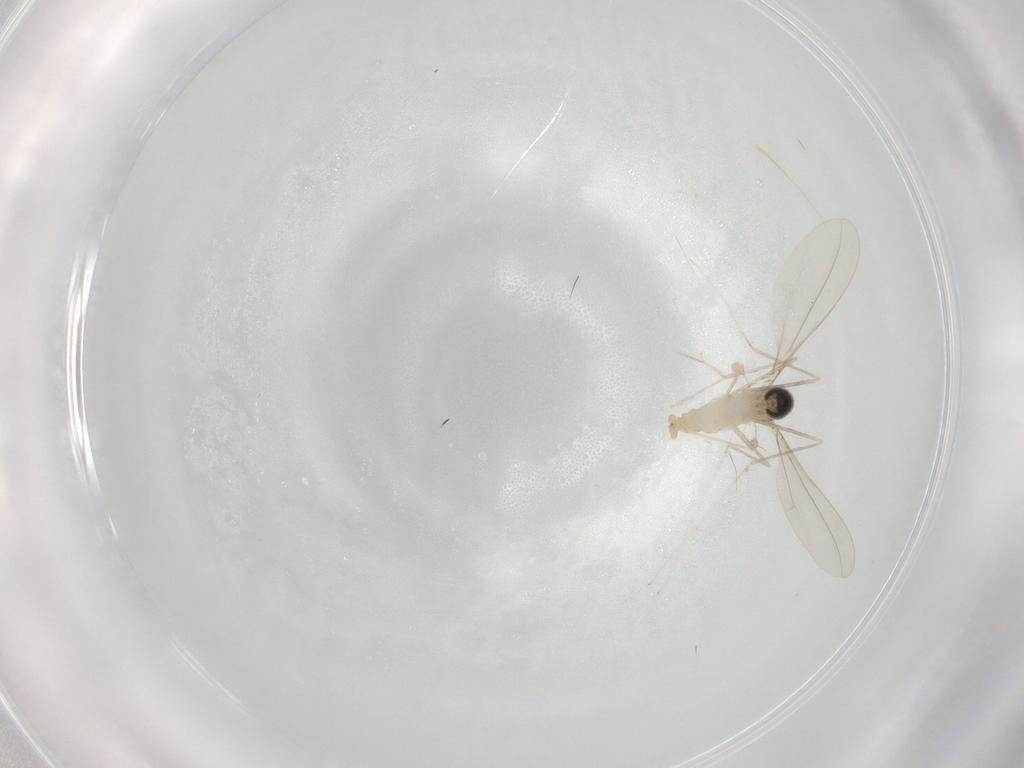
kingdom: Animalia
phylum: Arthropoda
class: Insecta
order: Diptera
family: Cecidomyiidae
